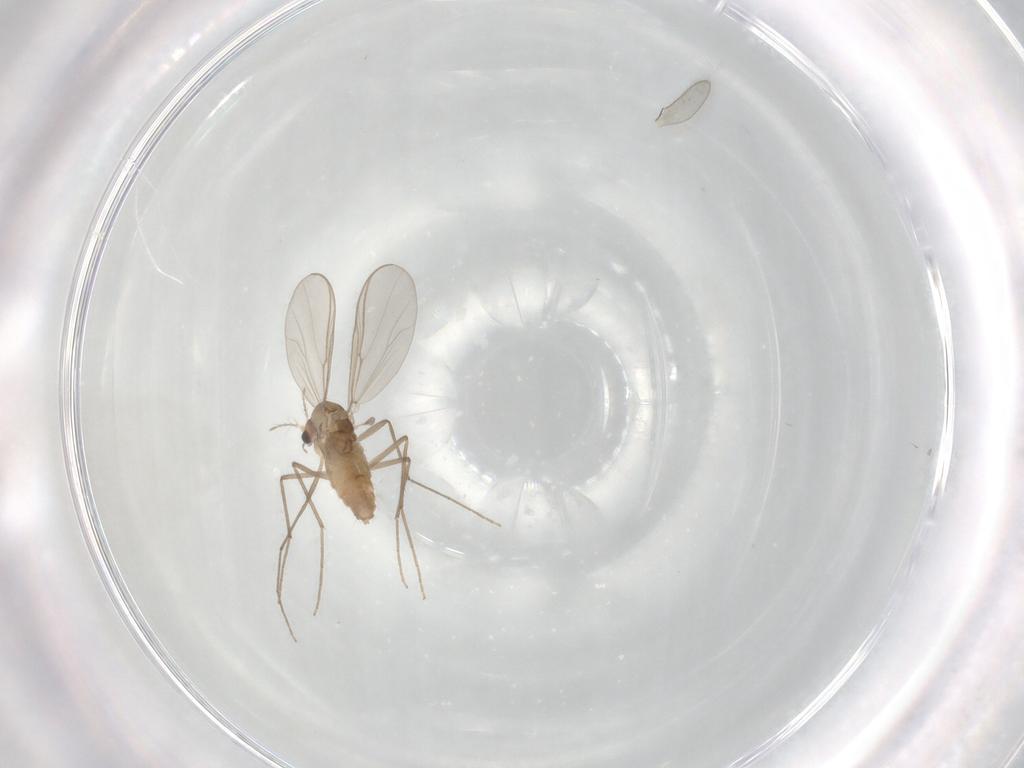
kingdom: Animalia
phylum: Arthropoda
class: Insecta
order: Diptera
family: Chironomidae
